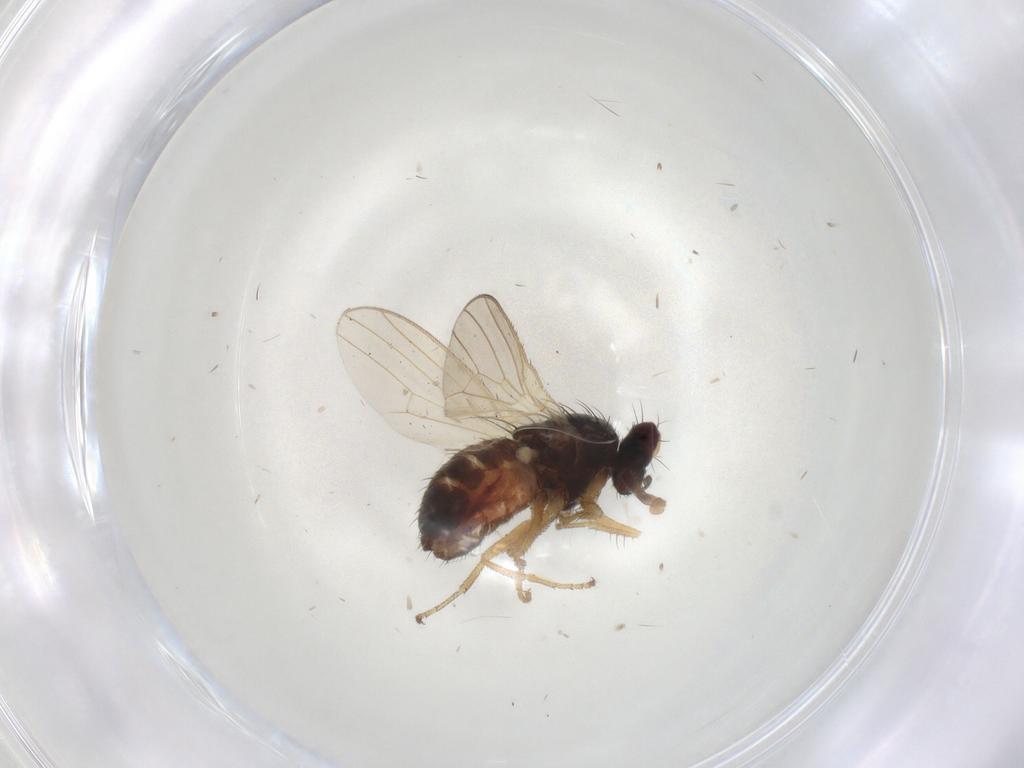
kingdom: Animalia
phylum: Arthropoda
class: Insecta
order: Diptera
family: Heleomyzidae
